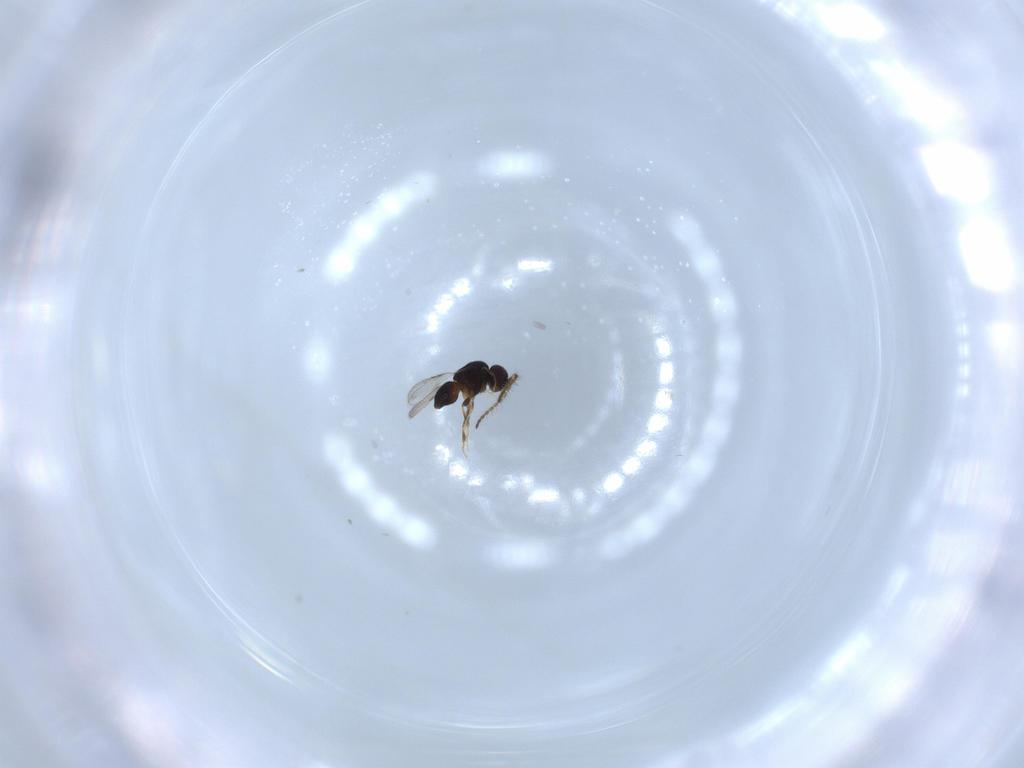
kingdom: Animalia
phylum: Arthropoda
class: Insecta
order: Hymenoptera
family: Ceraphronidae
